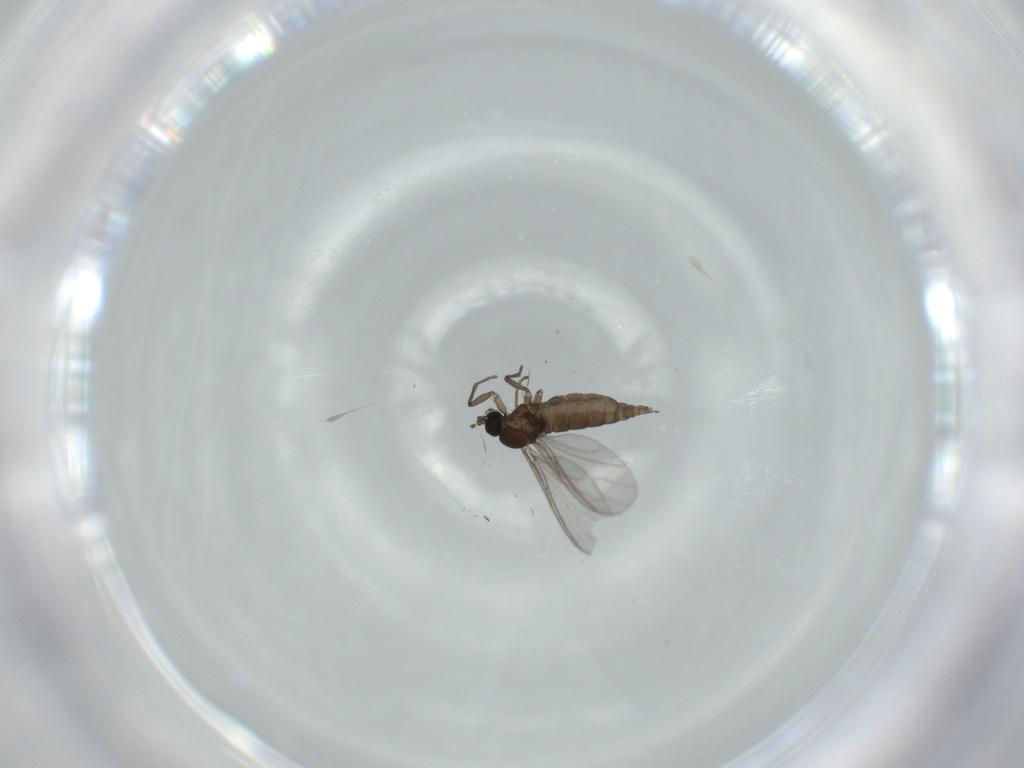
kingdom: Animalia
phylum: Arthropoda
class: Insecta
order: Diptera
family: Sciaridae
